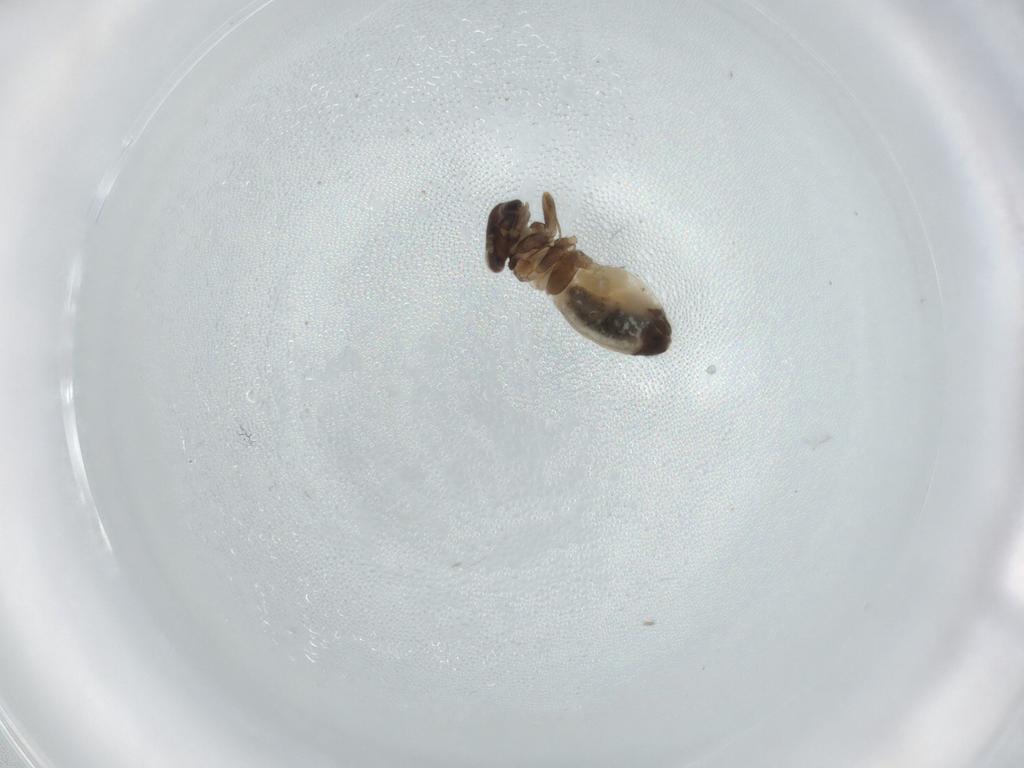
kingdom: Animalia
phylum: Arthropoda
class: Insecta
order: Psocodea
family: Lepidopsocidae
